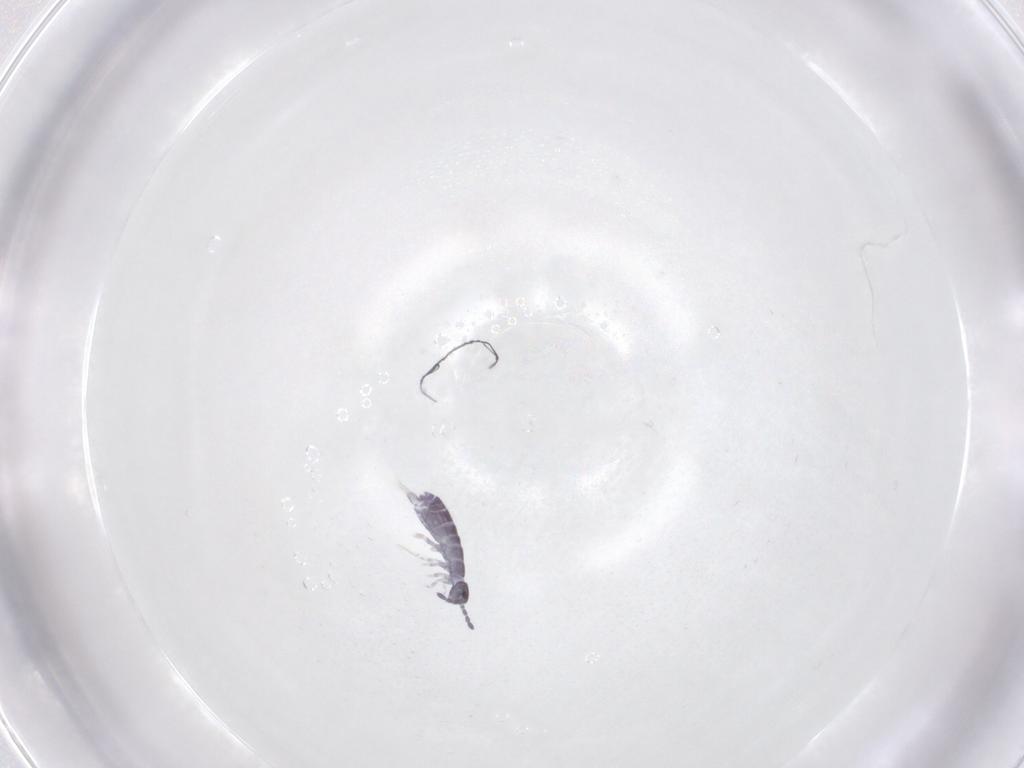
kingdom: Animalia
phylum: Arthropoda
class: Collembola
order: Entomobryomorpha
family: Isotomidae
